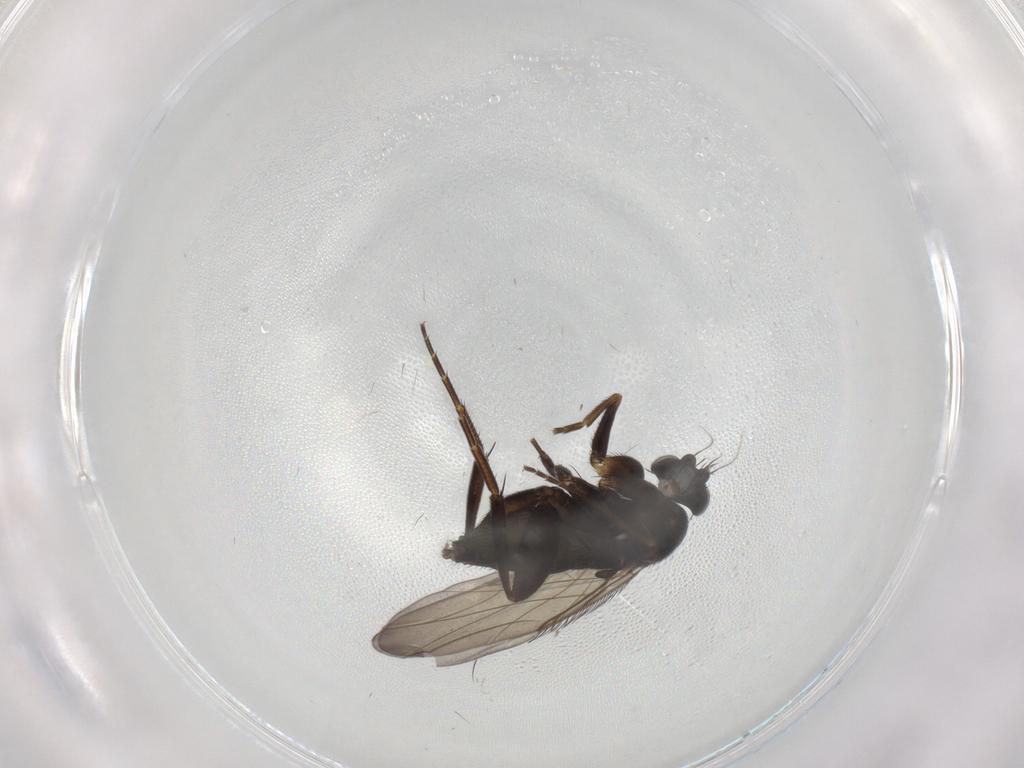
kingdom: Animalia
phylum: Arthropoda
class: Insecta
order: Diptera
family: Phoridae
